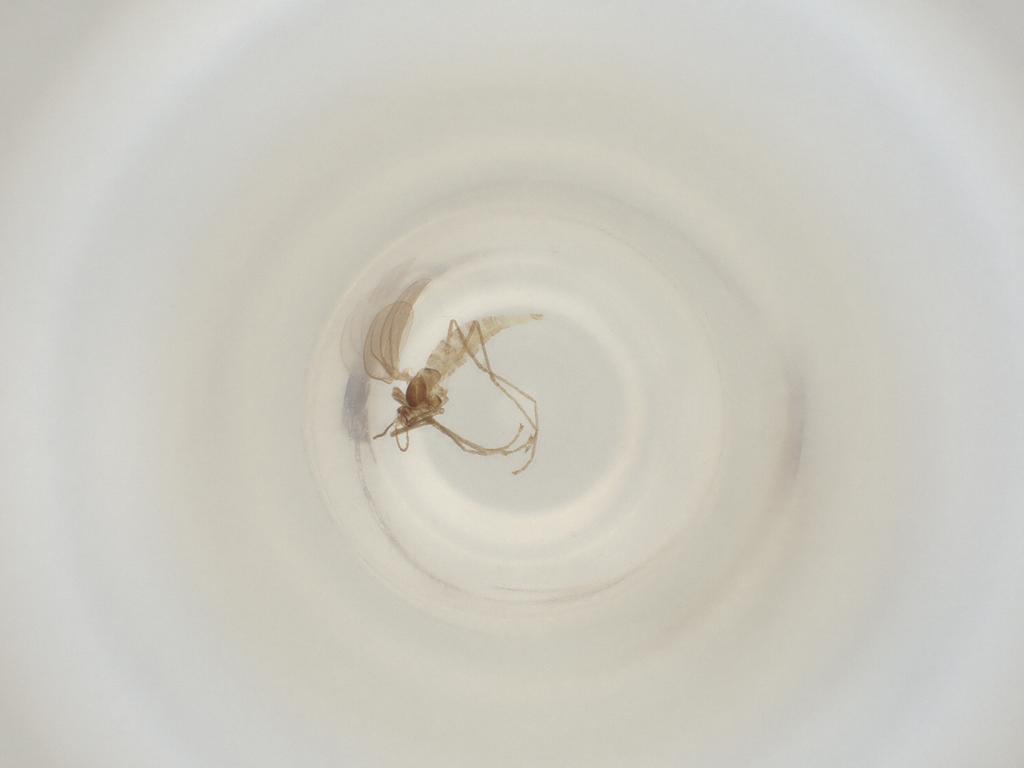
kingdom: Animalia
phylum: Arthropoda
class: Insecta
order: Diptera
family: Cecidomyiidae
